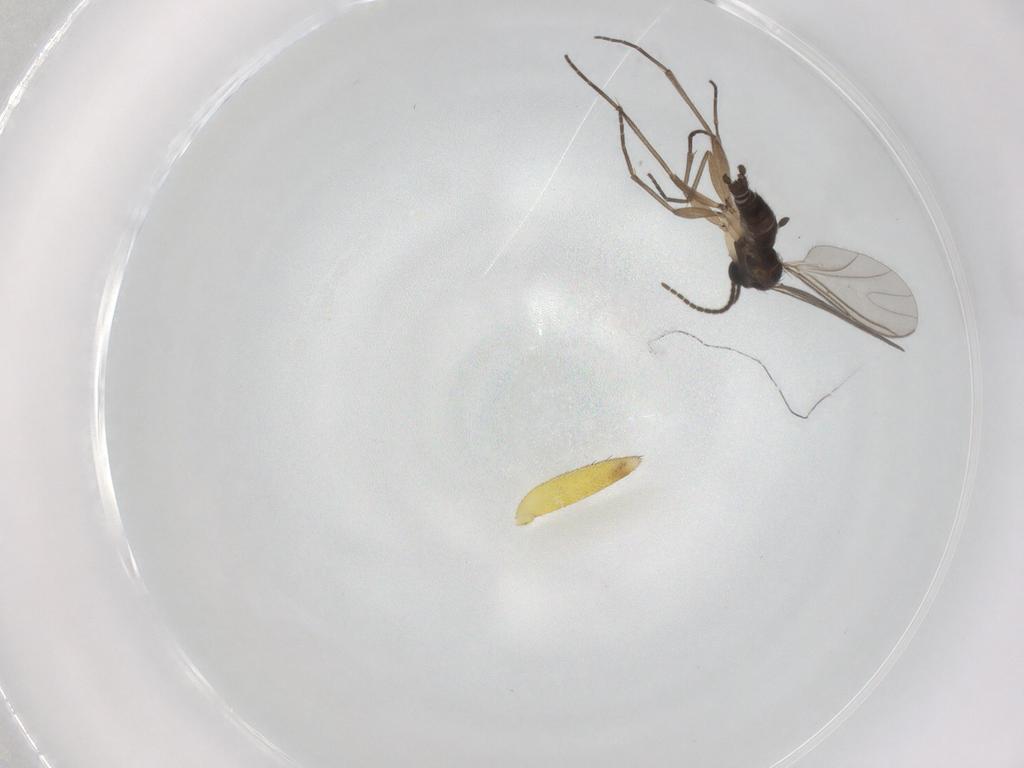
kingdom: Animalia
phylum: Arthropoda
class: Insecta
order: Diptera
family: Sciaridae
